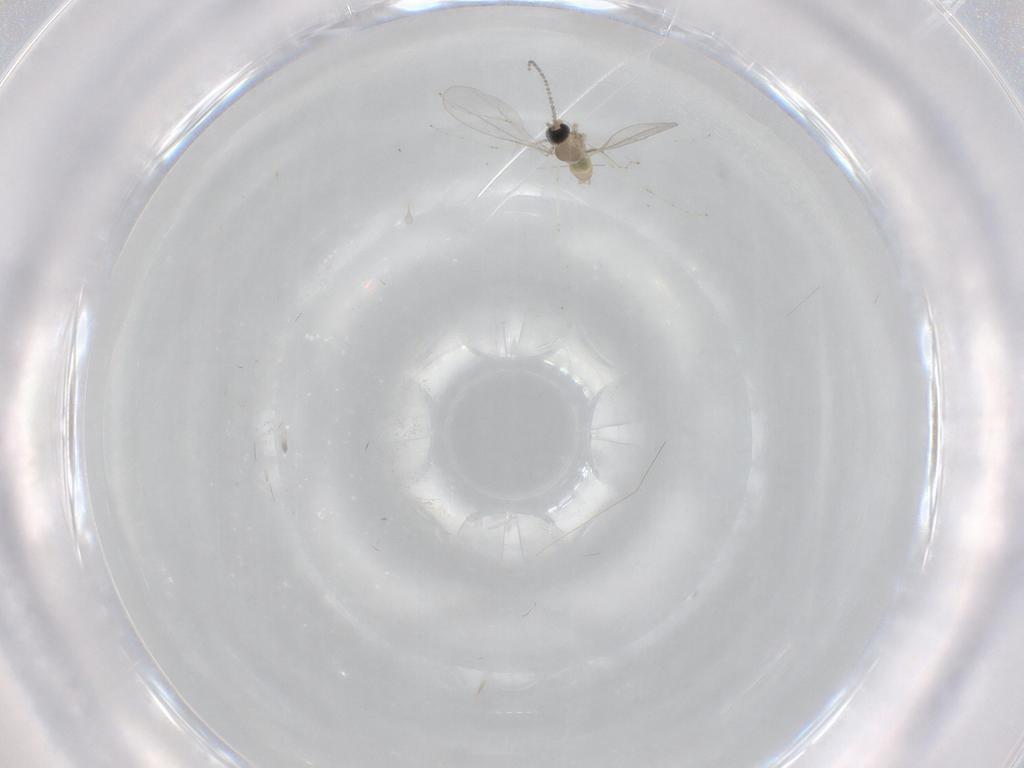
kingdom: Animalia
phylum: Arthropoda
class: Insecta
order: Diptera
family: Cecidomyiidae
